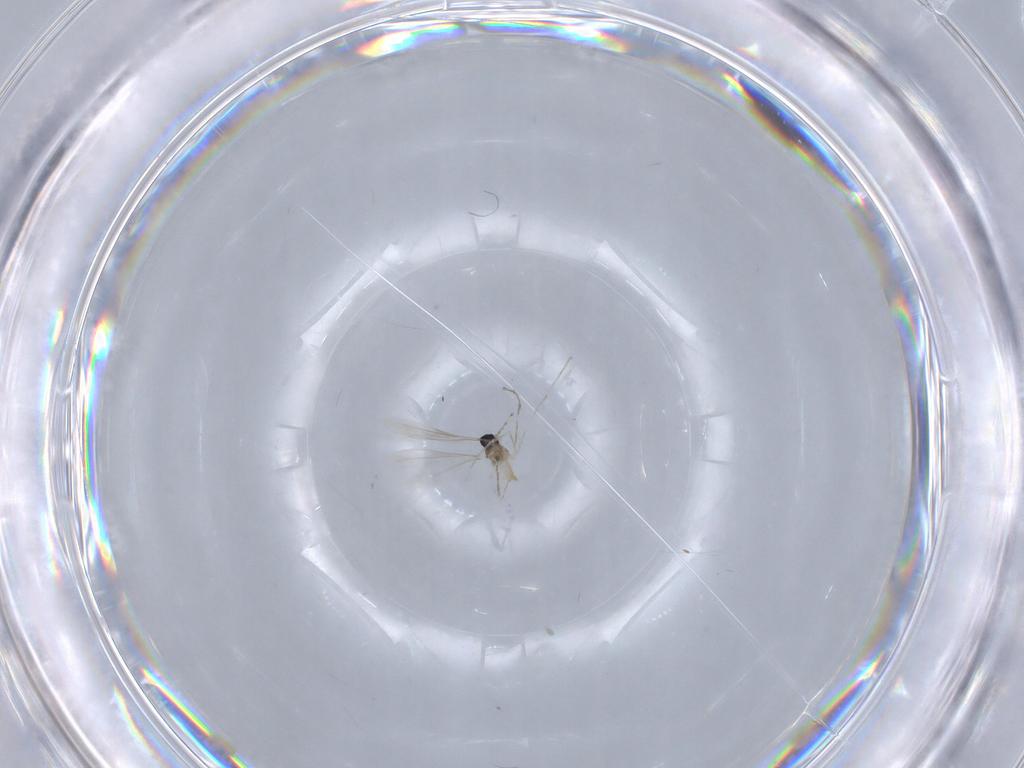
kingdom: Animalia
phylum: Arthropoda
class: Insecta
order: Diptera
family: Cecidomyiidae
